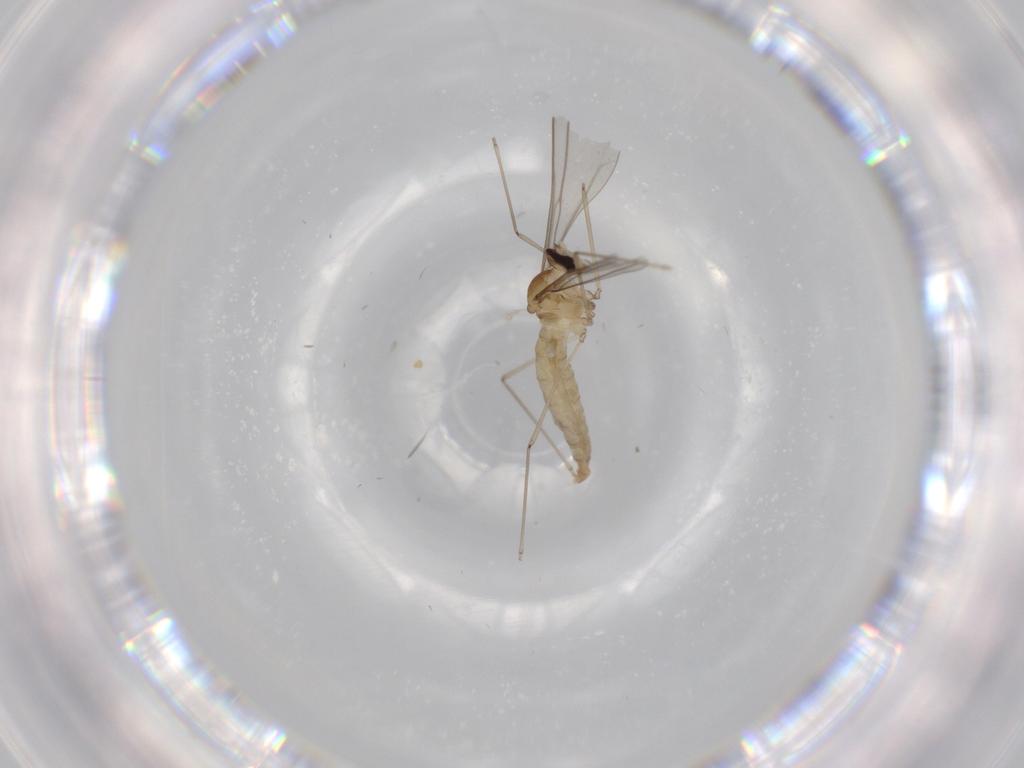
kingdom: Animalia
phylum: Arthropoda
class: Insecta
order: Diptera
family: Cecidomyiidae
